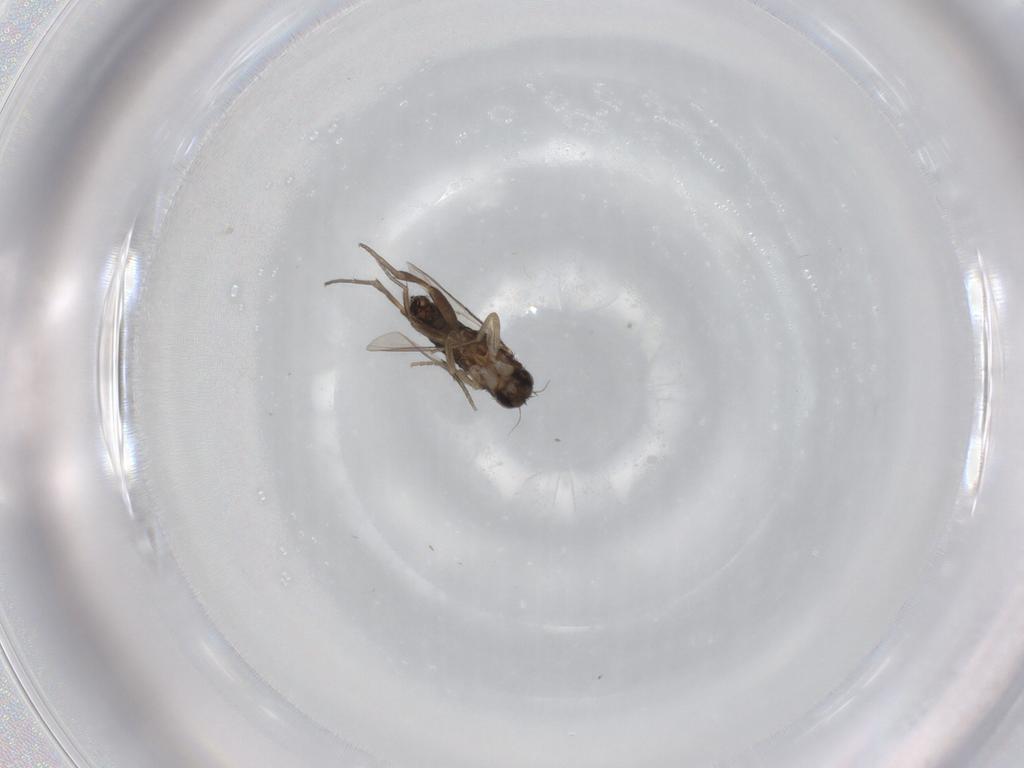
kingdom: Animalia
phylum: Arthropoda
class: Insecta
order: Diptera
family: Phoridae
